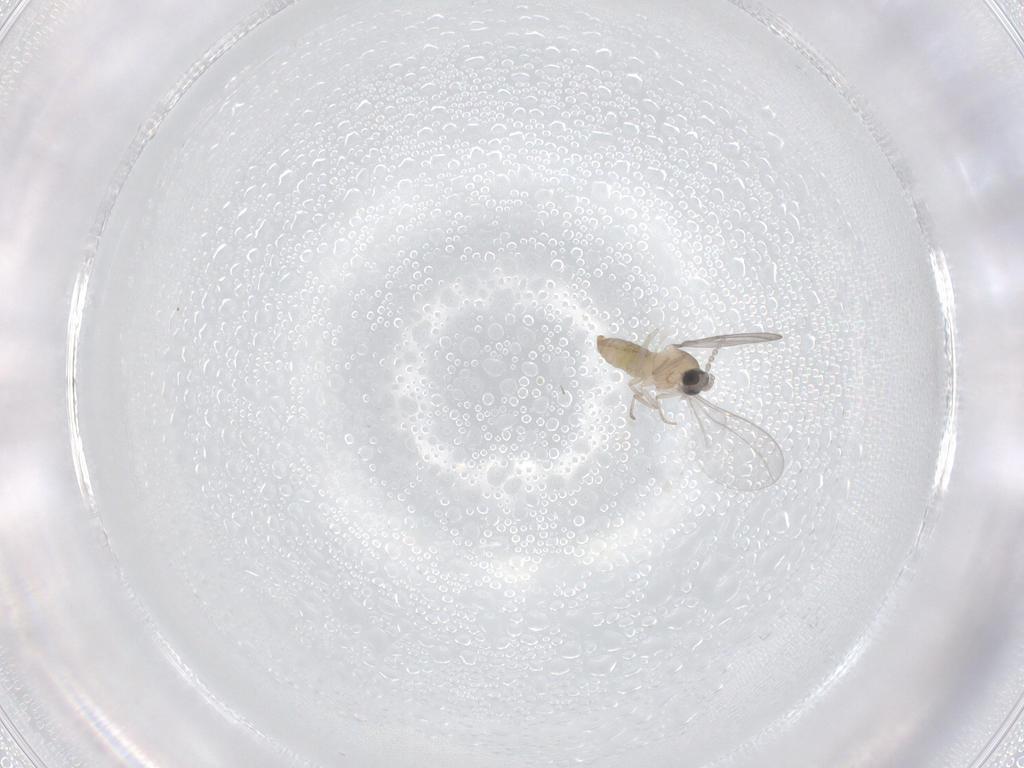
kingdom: Animalia
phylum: Arthropoda
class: Insecta
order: Diptera
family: Cecidomyiidae
